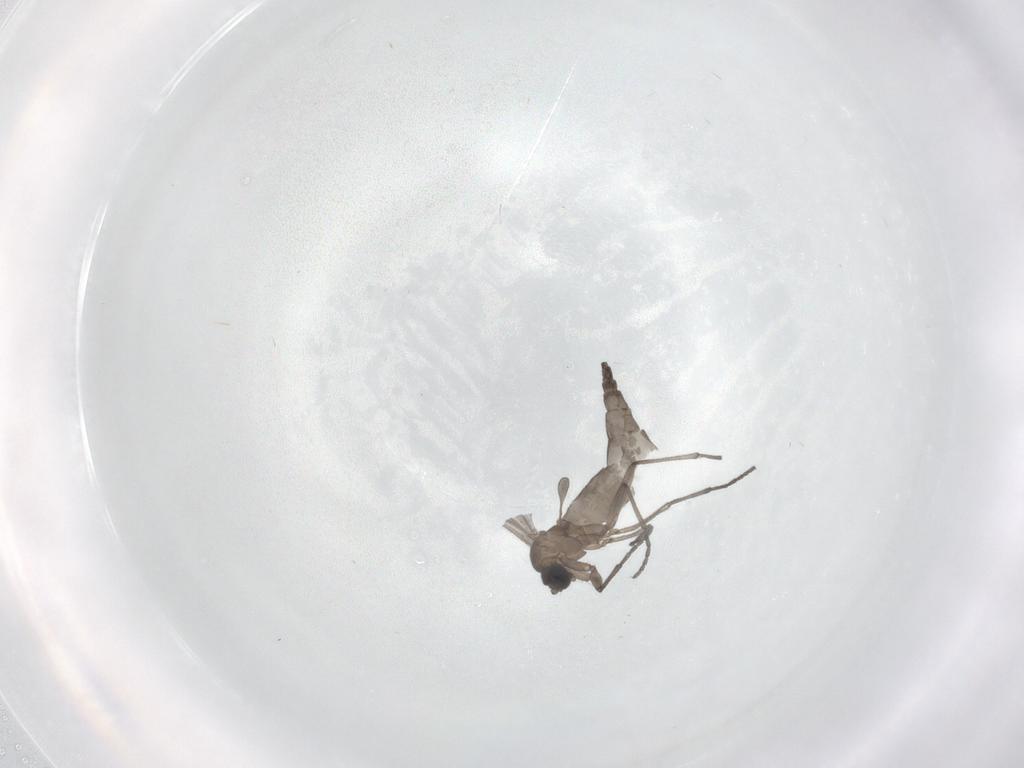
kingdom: Animalia
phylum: Arthropoda
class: Insecta
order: Diptera
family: Sciaridae
